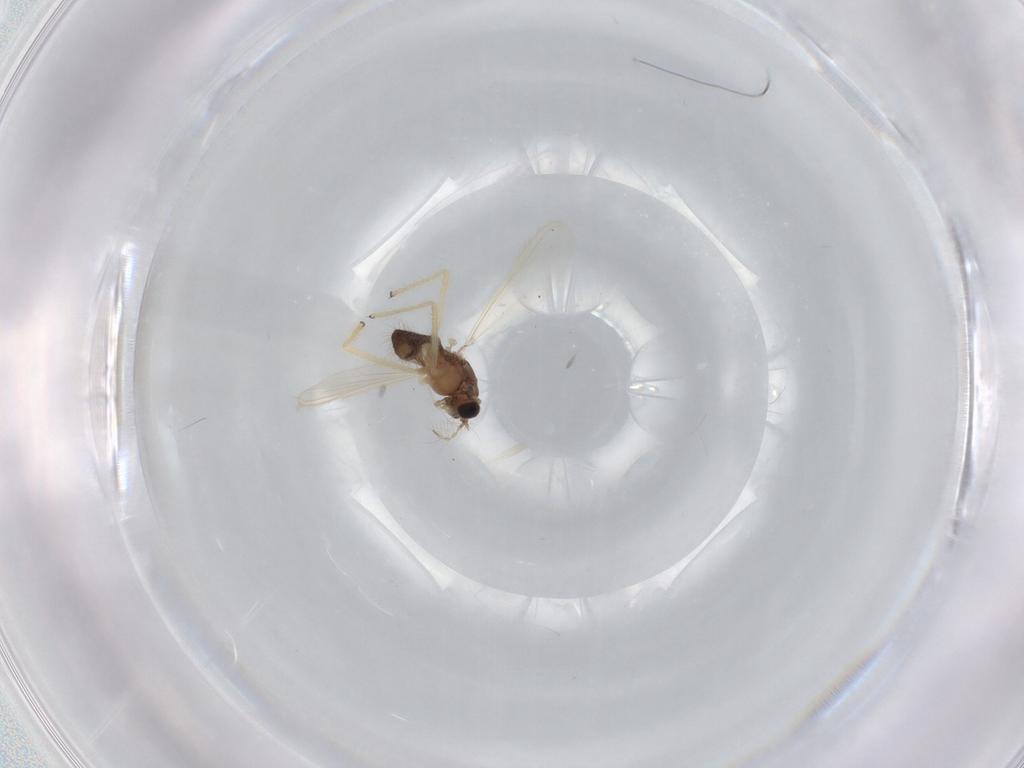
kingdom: Animalia
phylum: Arthropoda
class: Insecta
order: Diptera
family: Chironomidae
